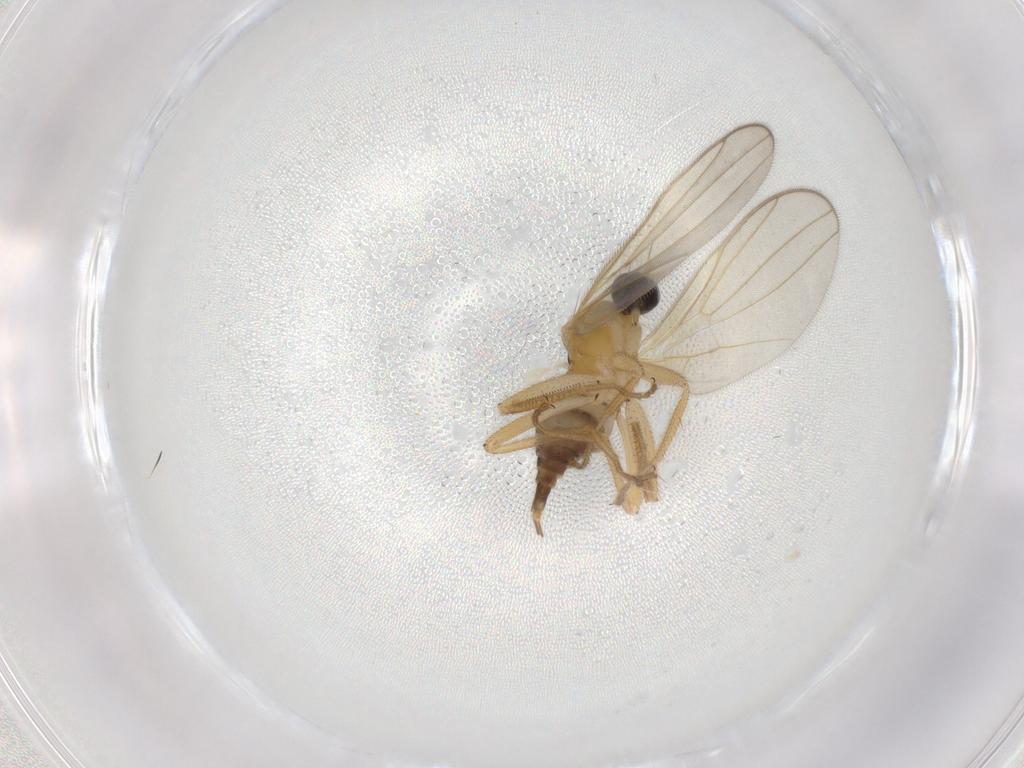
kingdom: Animalia
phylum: Arthropoda
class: Insecta
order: Diptera
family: Chironomidae
